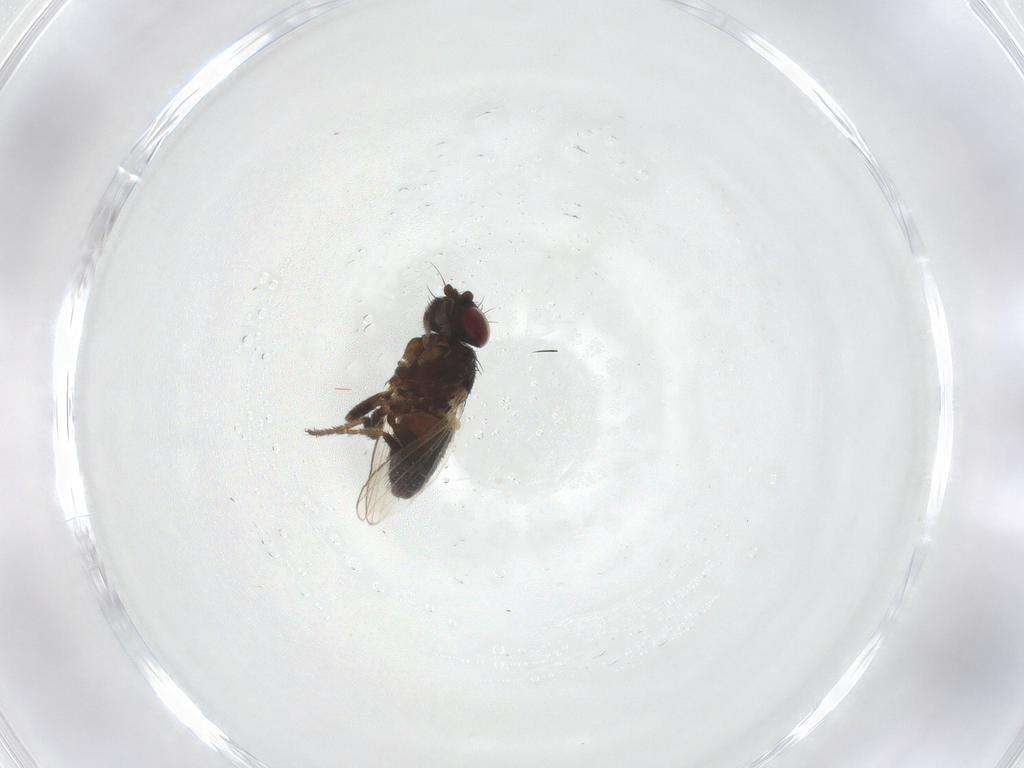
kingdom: Animalia
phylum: Arthropoda
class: Insecta
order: Diptera
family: Milichiidae
